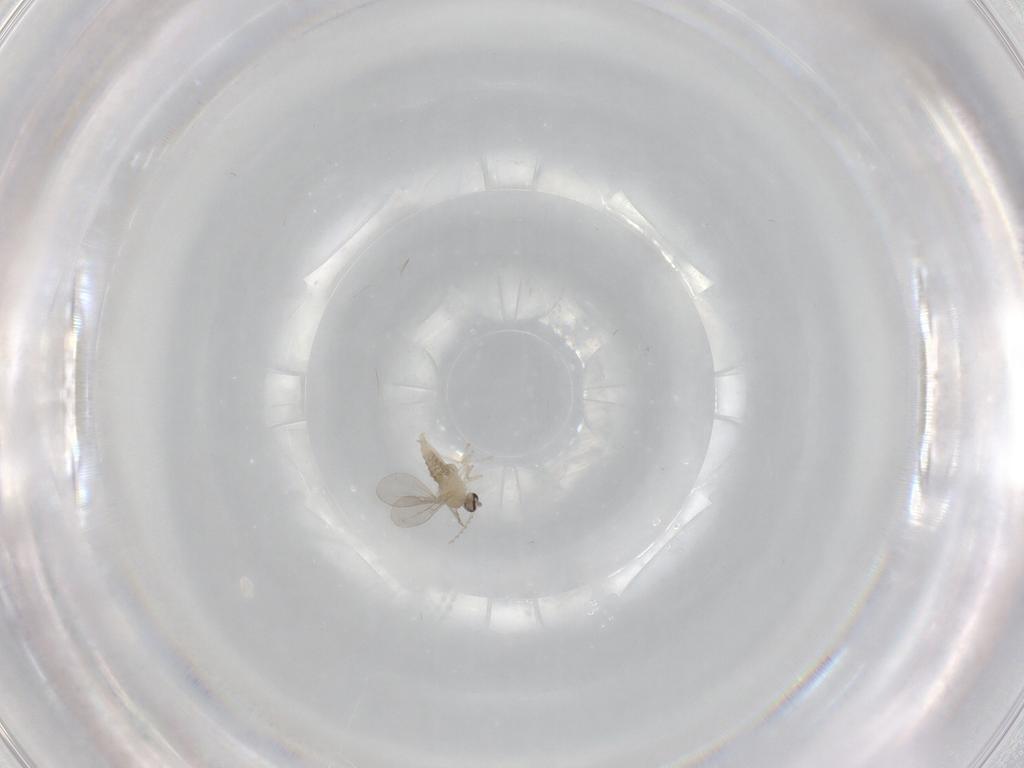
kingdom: Animalia
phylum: Arthropoda
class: Insecta
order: Diptera
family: Cecidomyiidae
